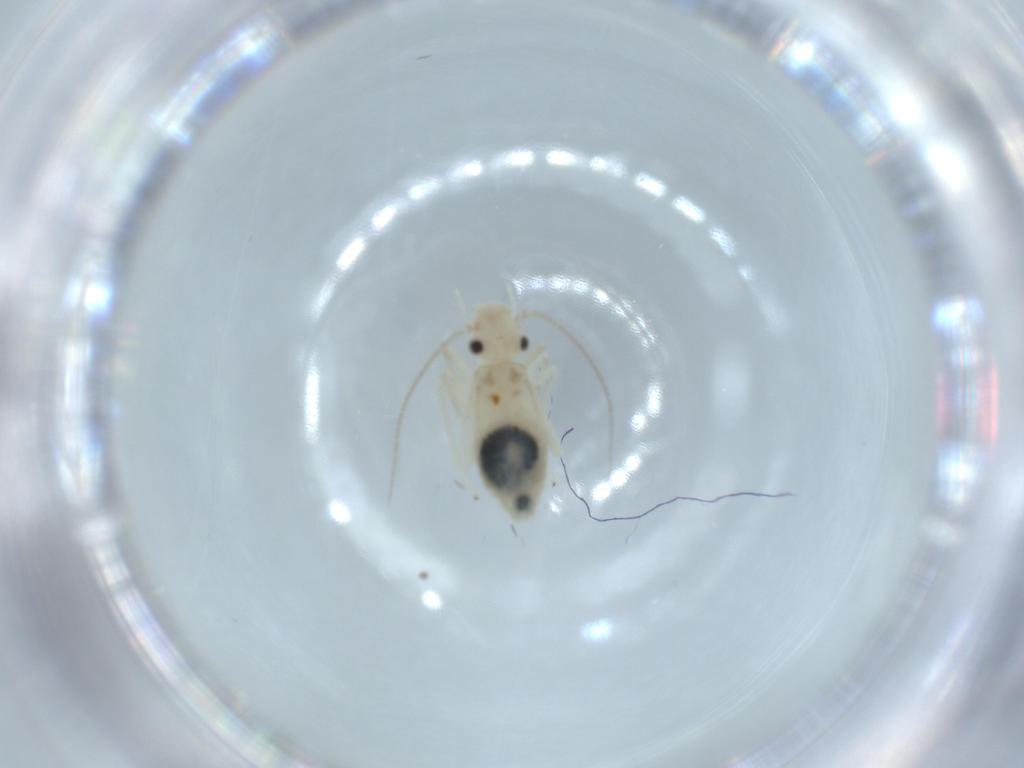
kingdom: Animalia
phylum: Arthropoda
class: Insecta
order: Psocodea
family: Caeciliusidae
